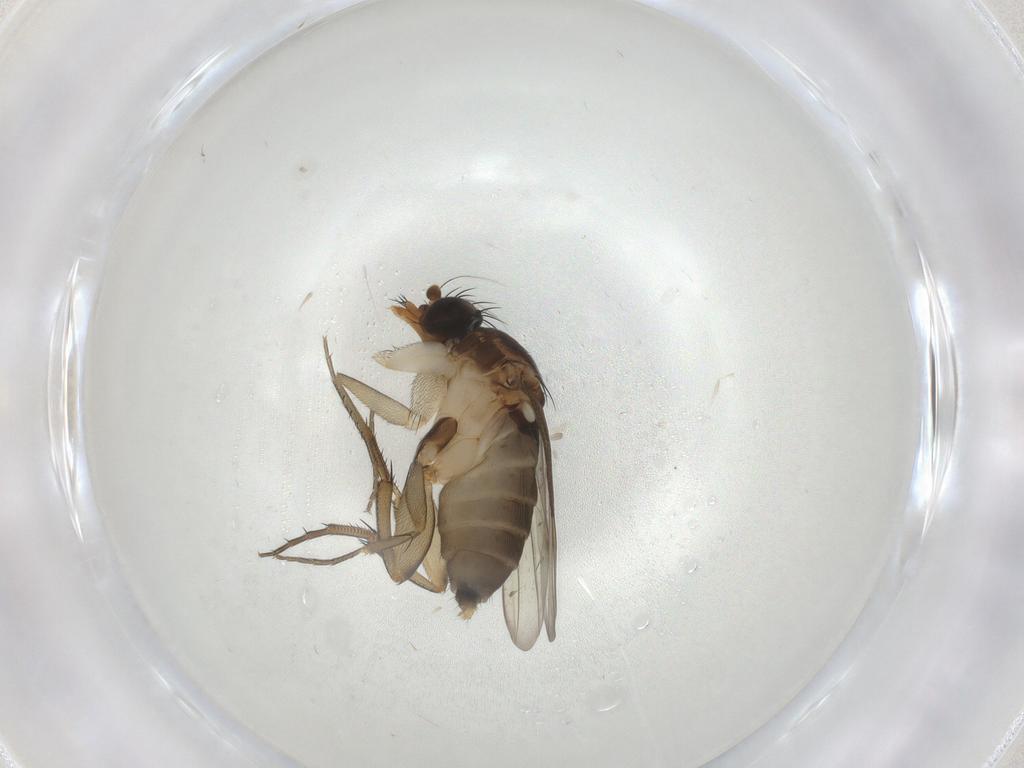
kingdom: Animalia
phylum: Arthropoda
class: Insecta
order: Diptera
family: Phoridae
